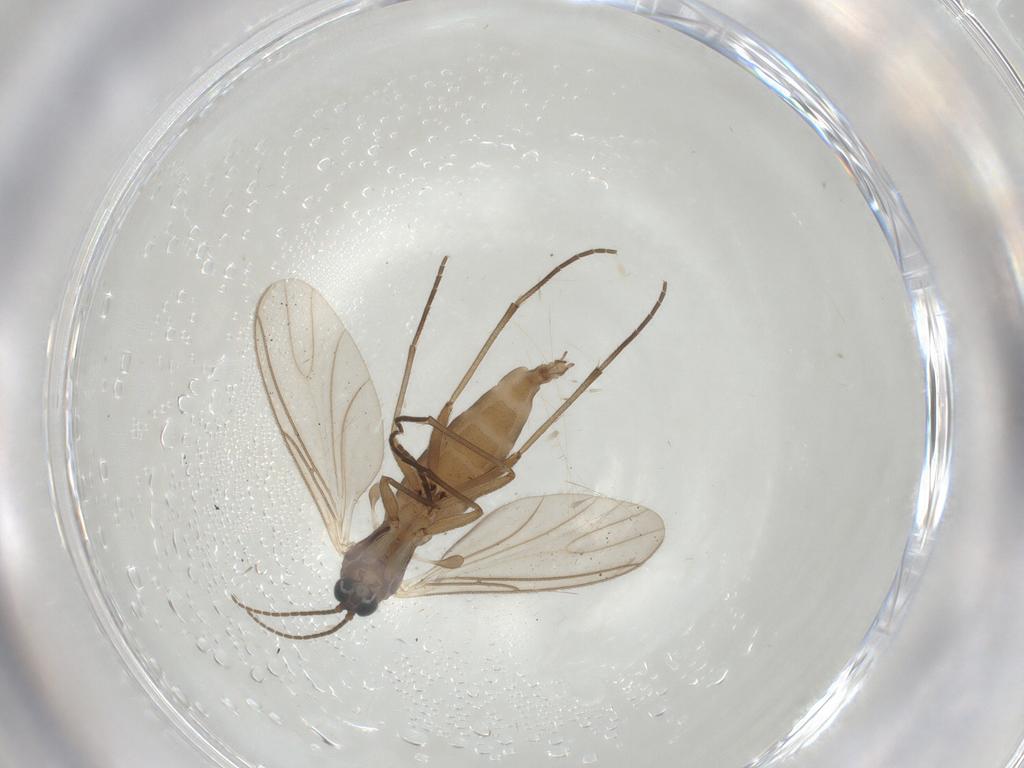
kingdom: Animalia
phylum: Arthropoda
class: Insecta
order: Diptera
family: Sciaridae
